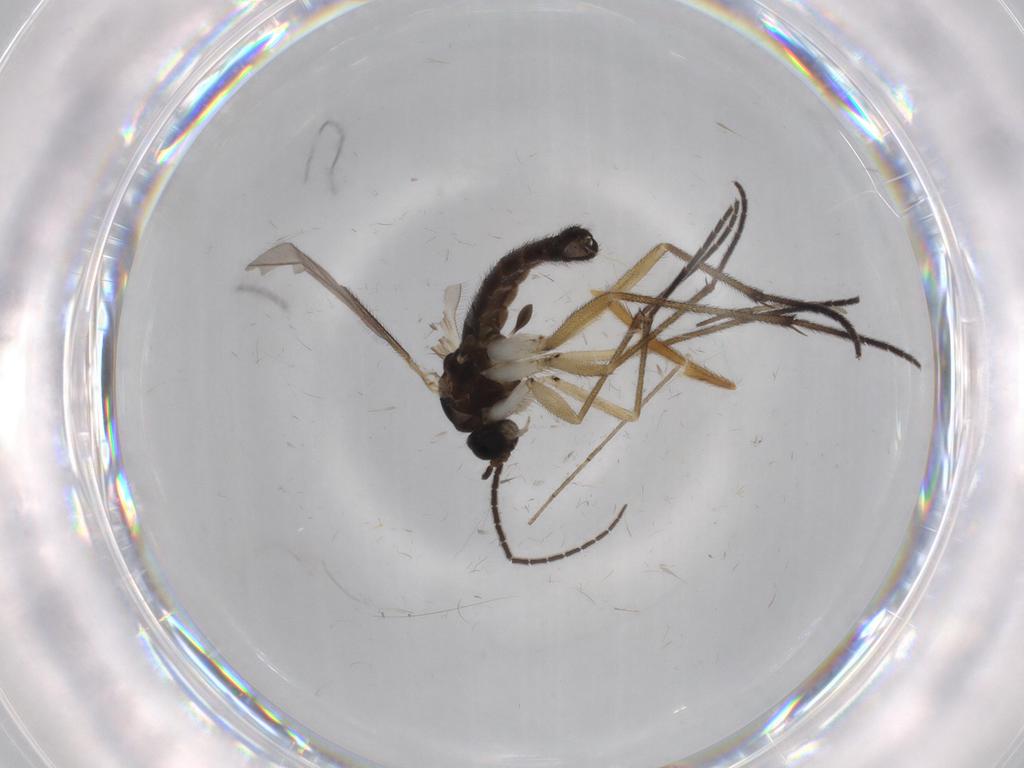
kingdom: Animalia
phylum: Arthropoda
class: Insecta
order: Diptera
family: Sciaridae
